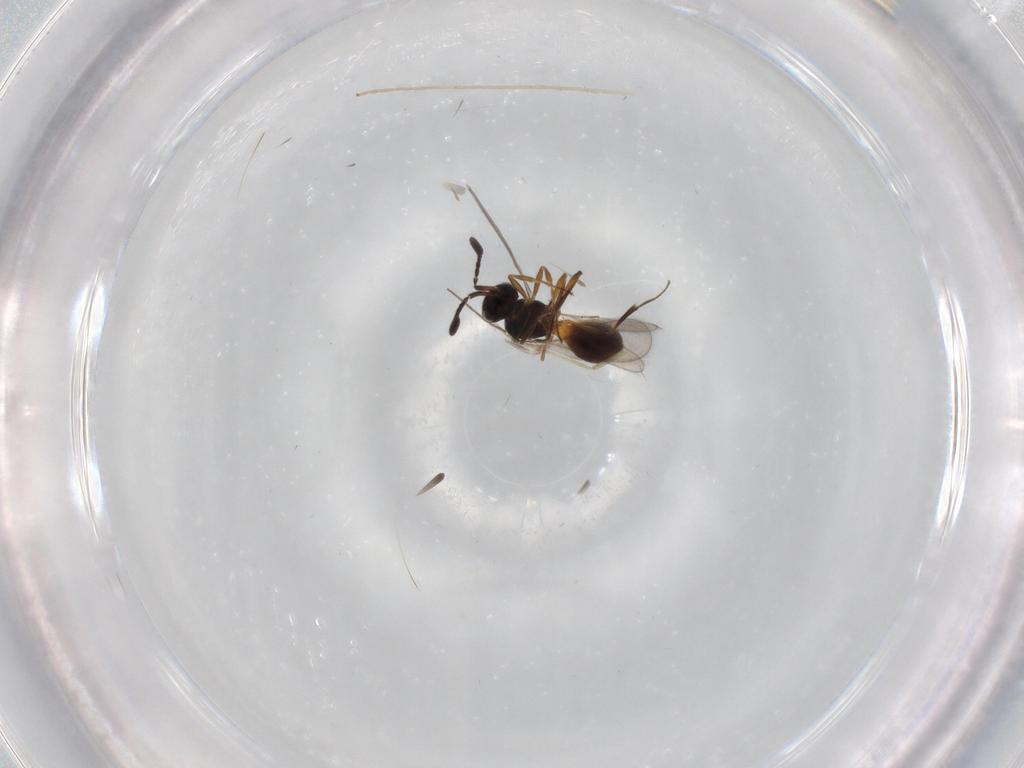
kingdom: Animalia
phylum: Arthropoda
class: Insecta
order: Hymenoptera
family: Scelionidae
